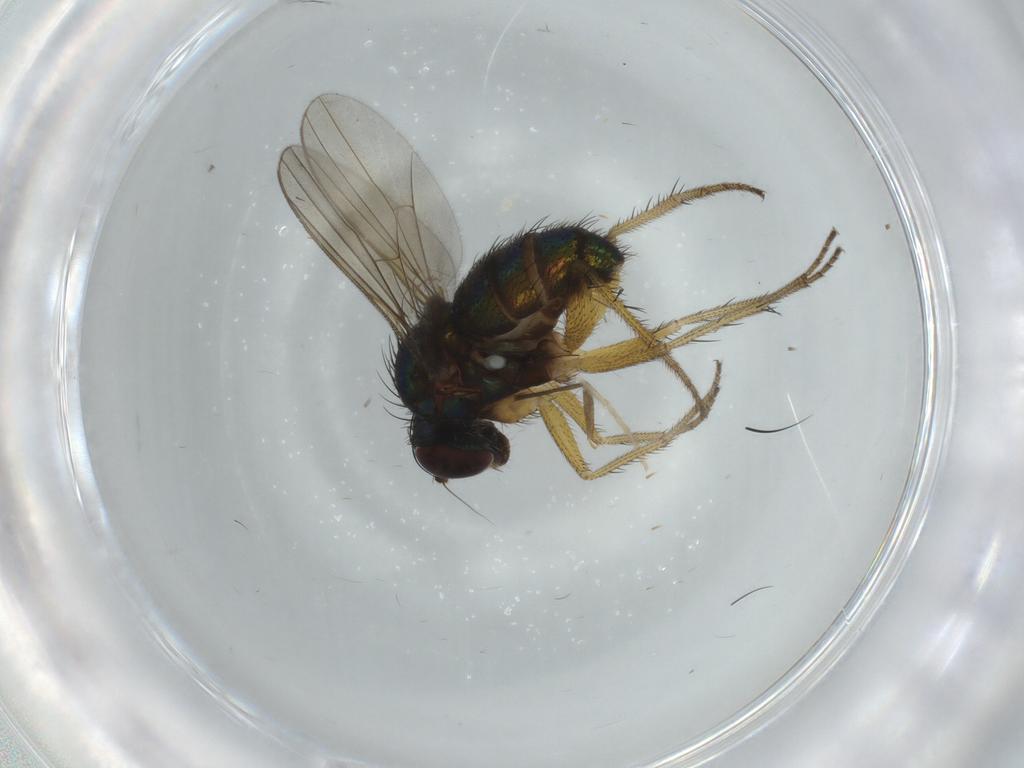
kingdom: Animalia
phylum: Arthropoda
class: Insecta
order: Diptera
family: Dolichopodidae
